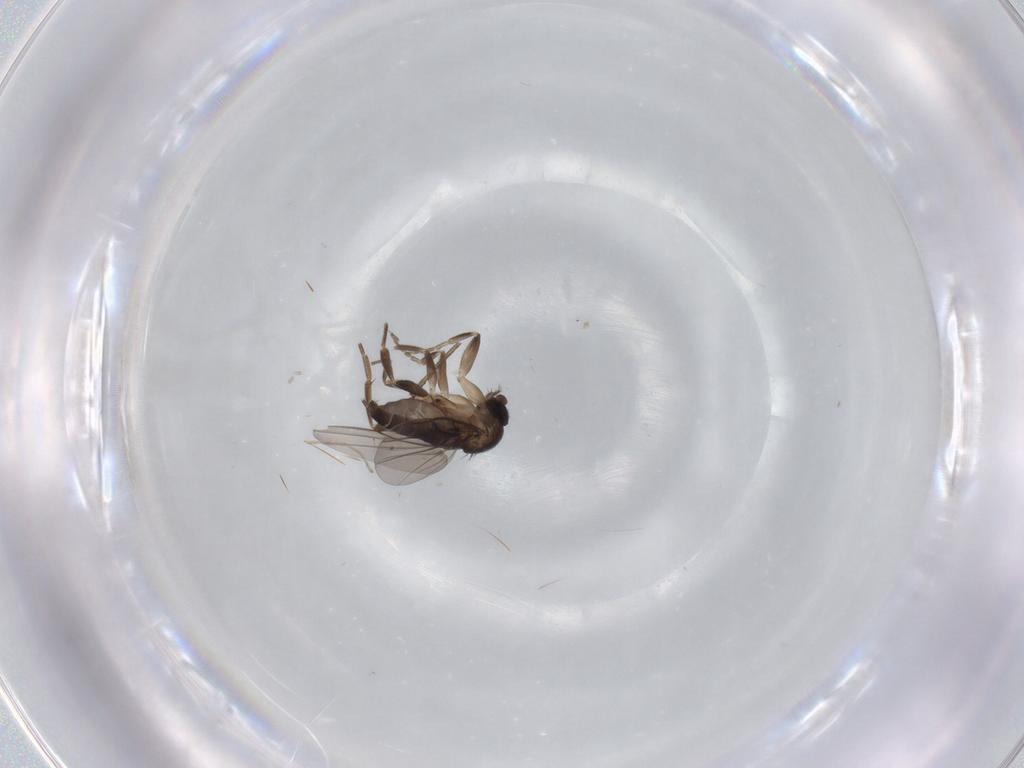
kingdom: Animalia
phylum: Arthropoda
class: Insecta
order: Diptera
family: Cecidomyiidae
